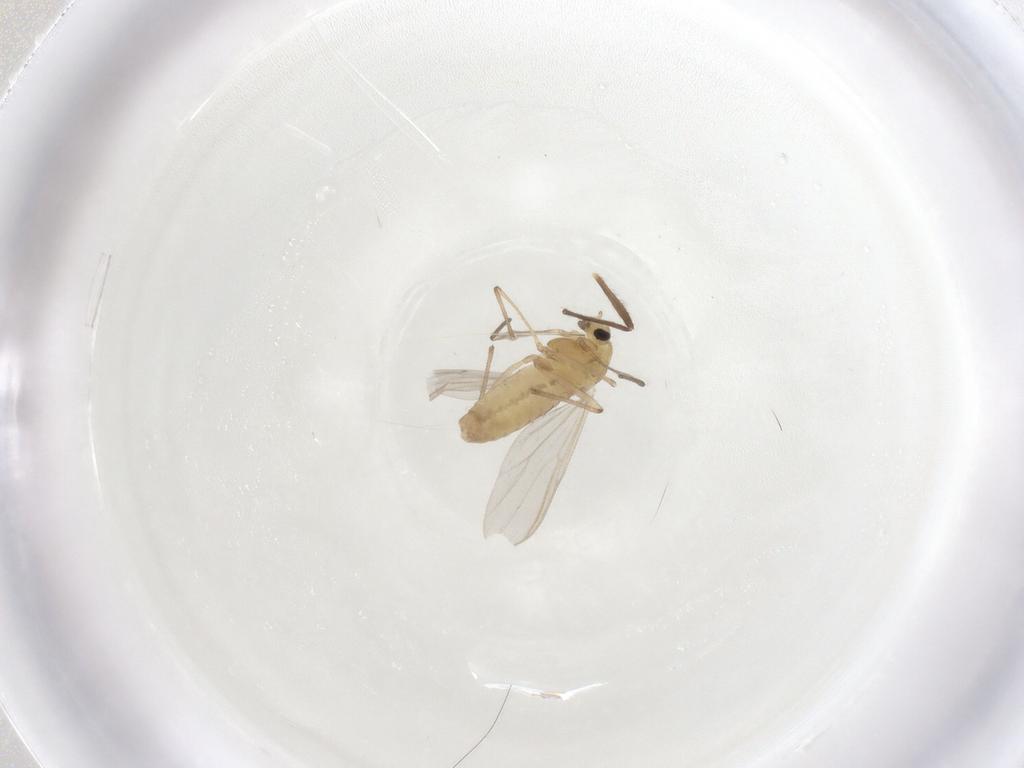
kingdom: Animalia
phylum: Arthropoda
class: Insecta
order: Diptera
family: Chironomidae
